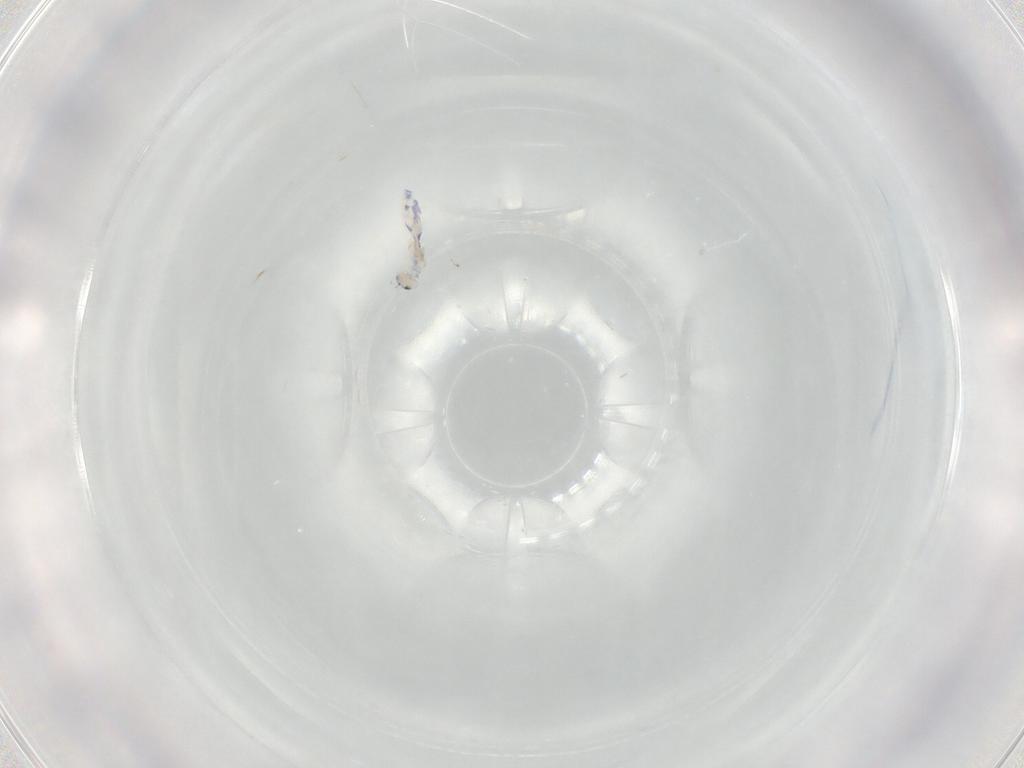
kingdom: Animalia
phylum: Arthropoda
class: Collembola
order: Entomobryomorpha
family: Entomobryidae
